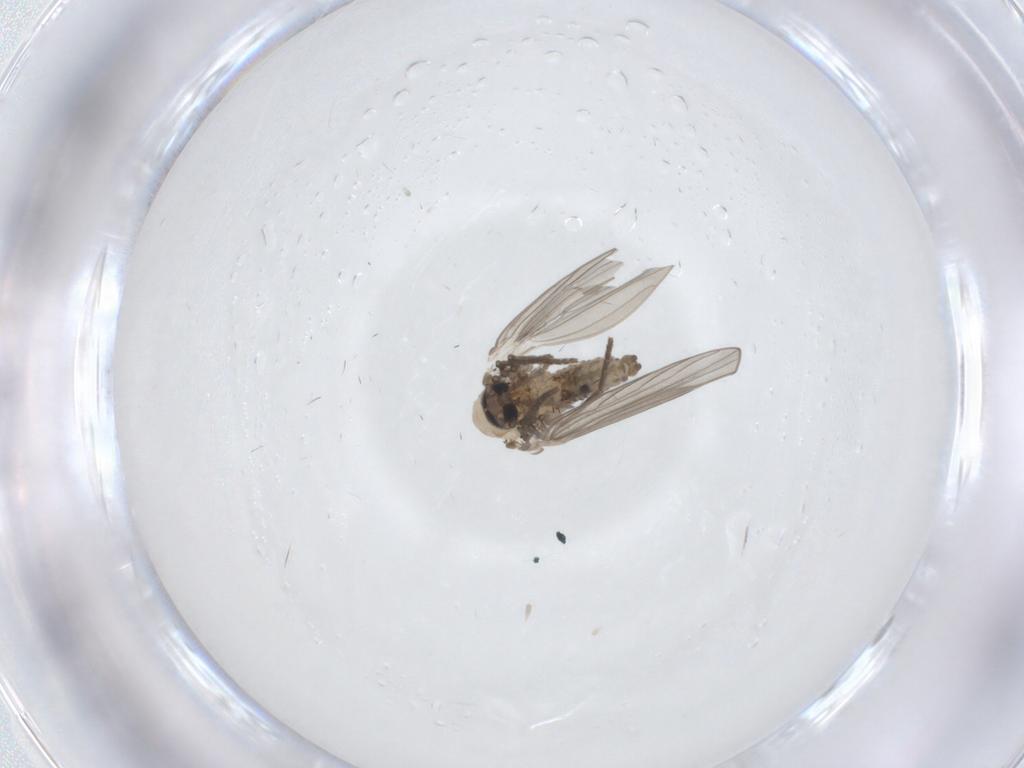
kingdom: Animalia
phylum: Arthropoda
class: Insecta
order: Diptera
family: Psychodidae
